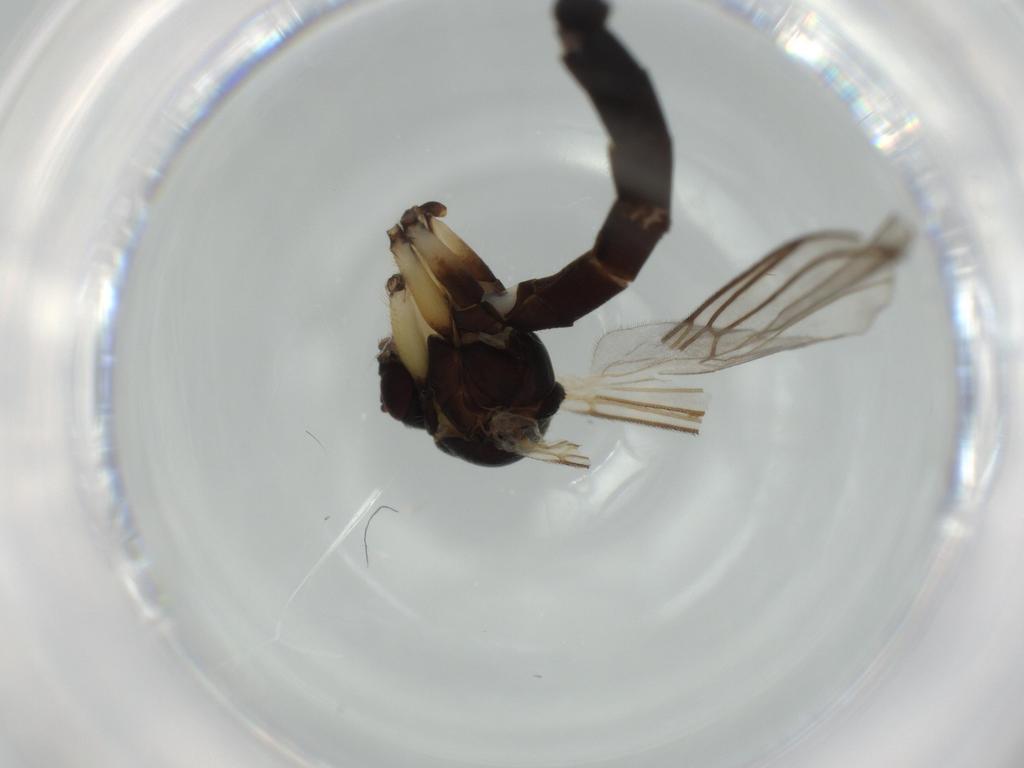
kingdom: Animalia
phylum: Arthropoda
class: Insecta
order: Diptera
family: Syrphidae
